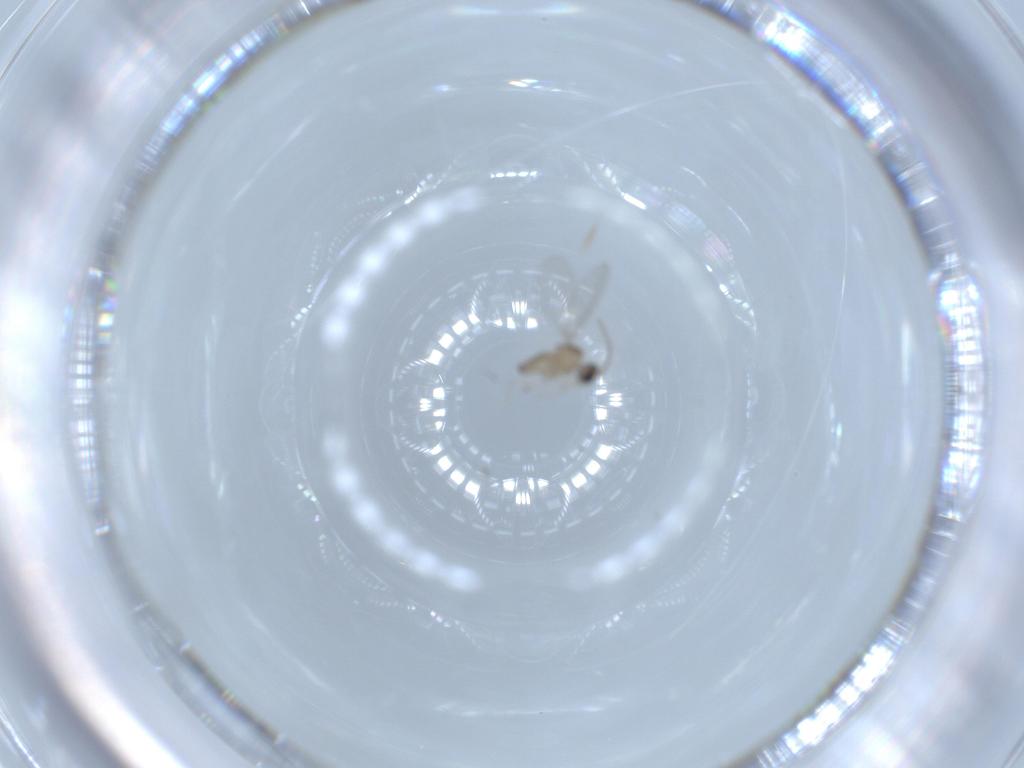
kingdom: Animalia
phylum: Arthropoda
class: Insecta
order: Diptera
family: Cecidomyiidae
